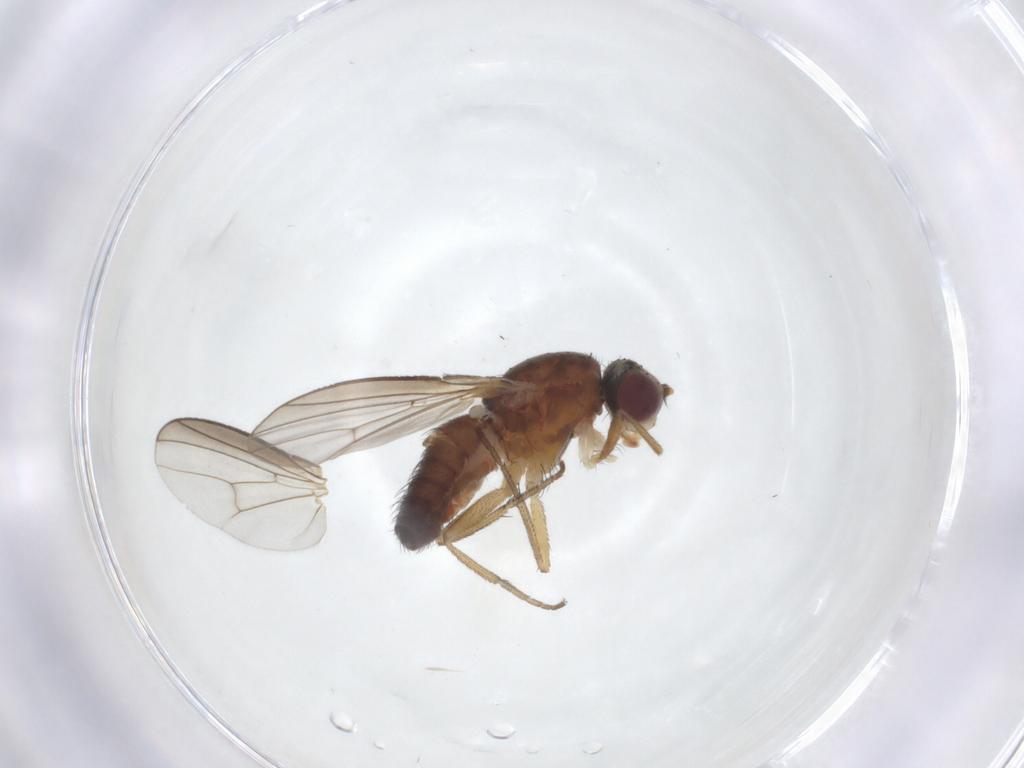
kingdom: Animalia
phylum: Arthropoda
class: Insecta
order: Diptera
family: Heleomyzidae
